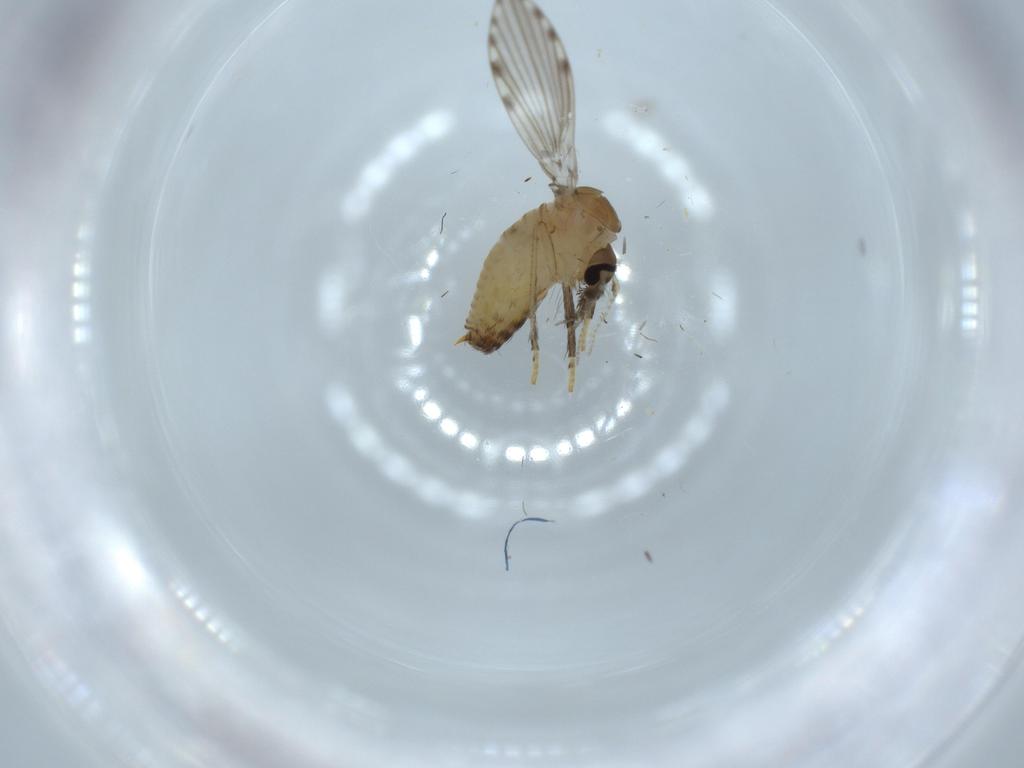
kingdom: Animalia
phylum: Arthropoda
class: Insecta
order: Diptera
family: Psychodidae
